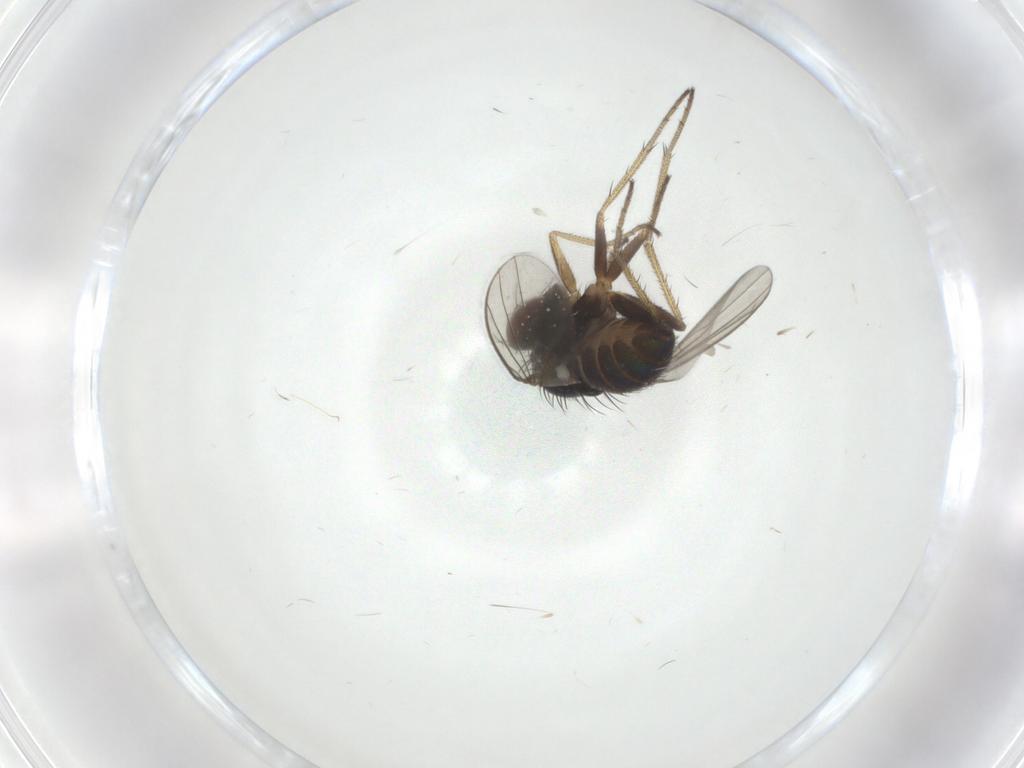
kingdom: Animalia
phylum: Arthropoda
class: Insecta
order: Diptera
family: Dolichopodidae
